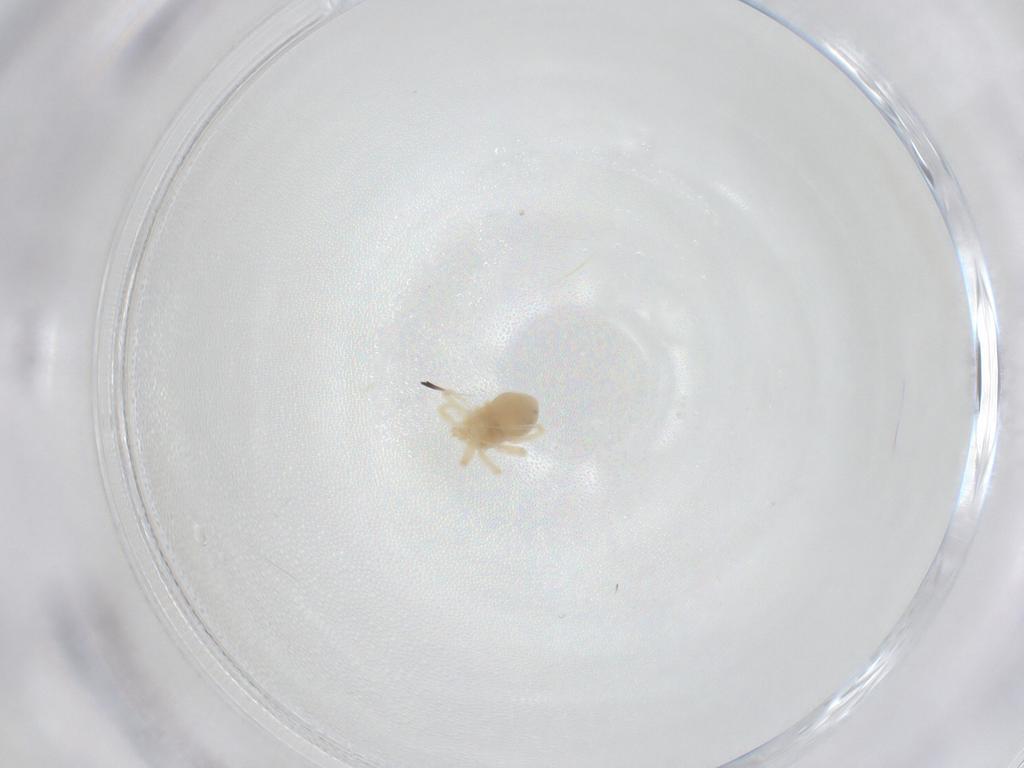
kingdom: Animalia
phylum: Arthropoda
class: Arachnida
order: Trombidiformes
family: Anystidae
